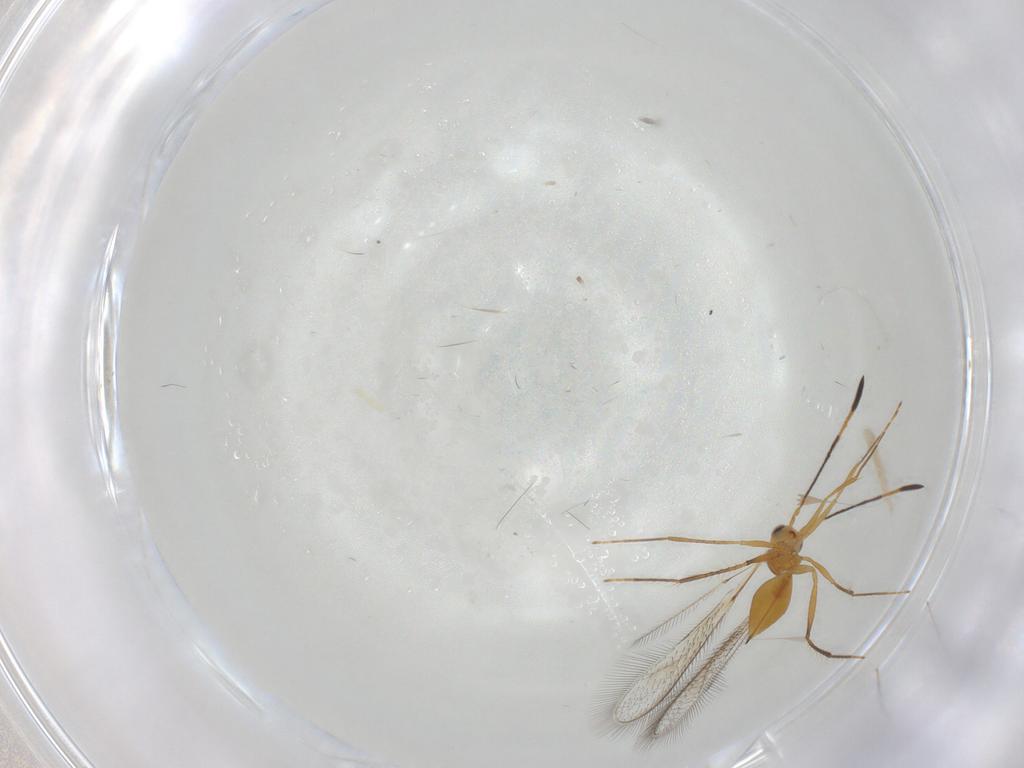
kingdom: Animalia
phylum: Arthropoda
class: Insecta
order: Hymenoptera
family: Mymaridae
